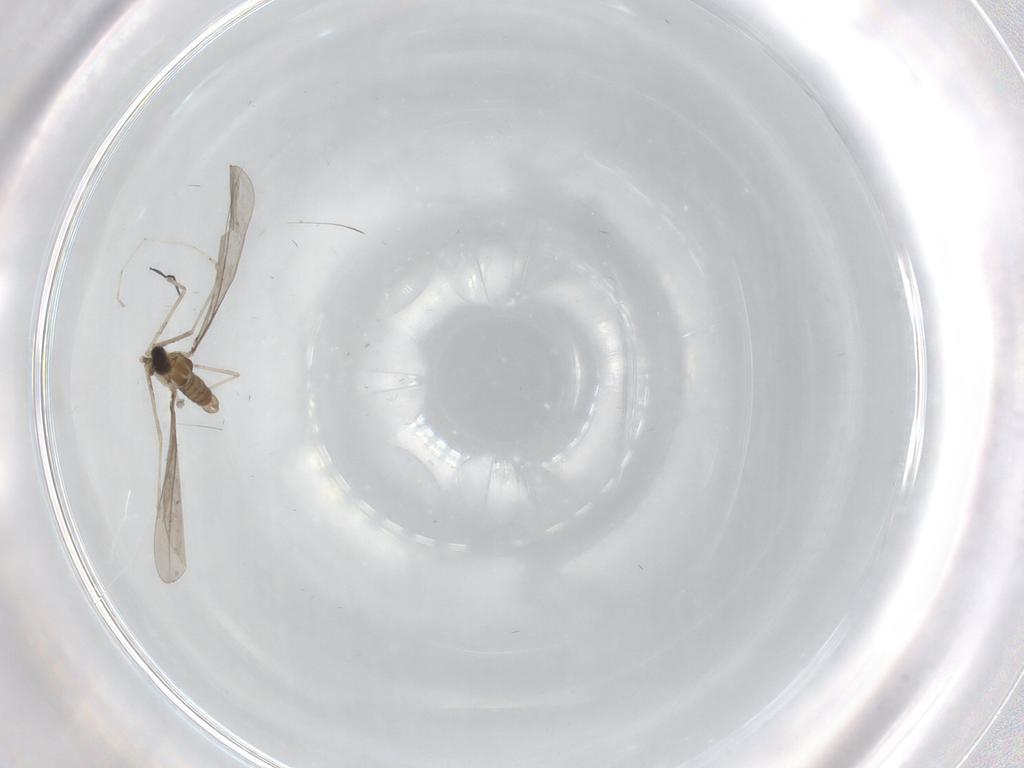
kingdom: Animalia
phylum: Arthropoda
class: Insecta
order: Diptera
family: Cecidomyiidae
